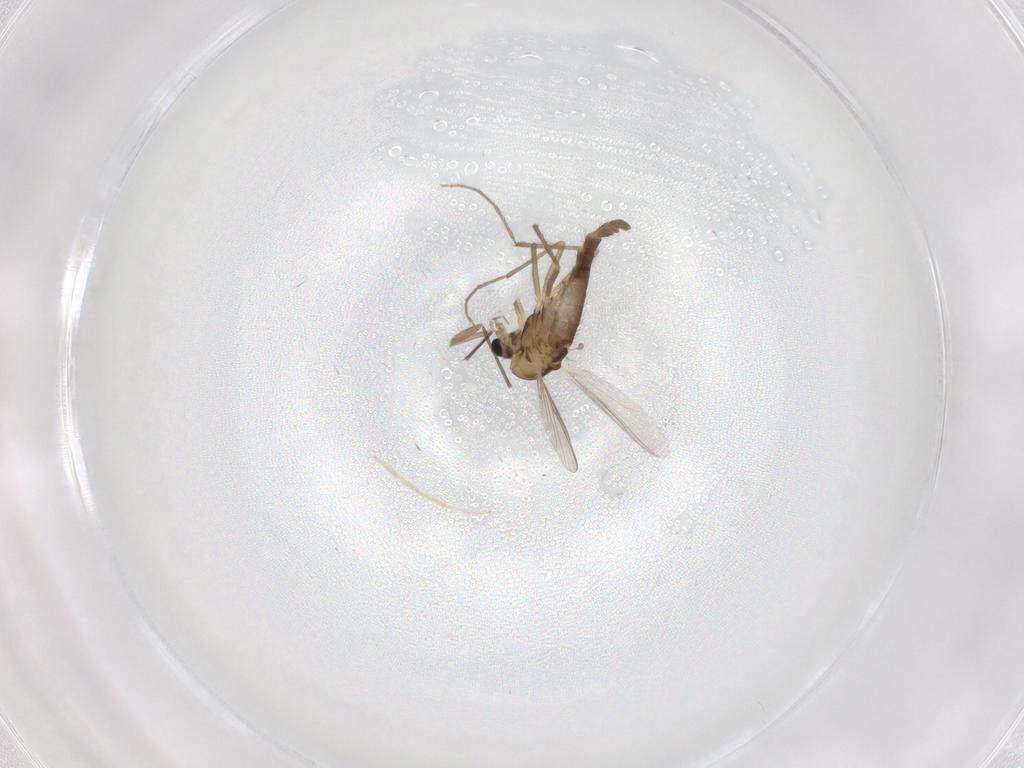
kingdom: Animalia
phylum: Arthropoda
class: Insecta
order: Diptera
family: Chironomidae
